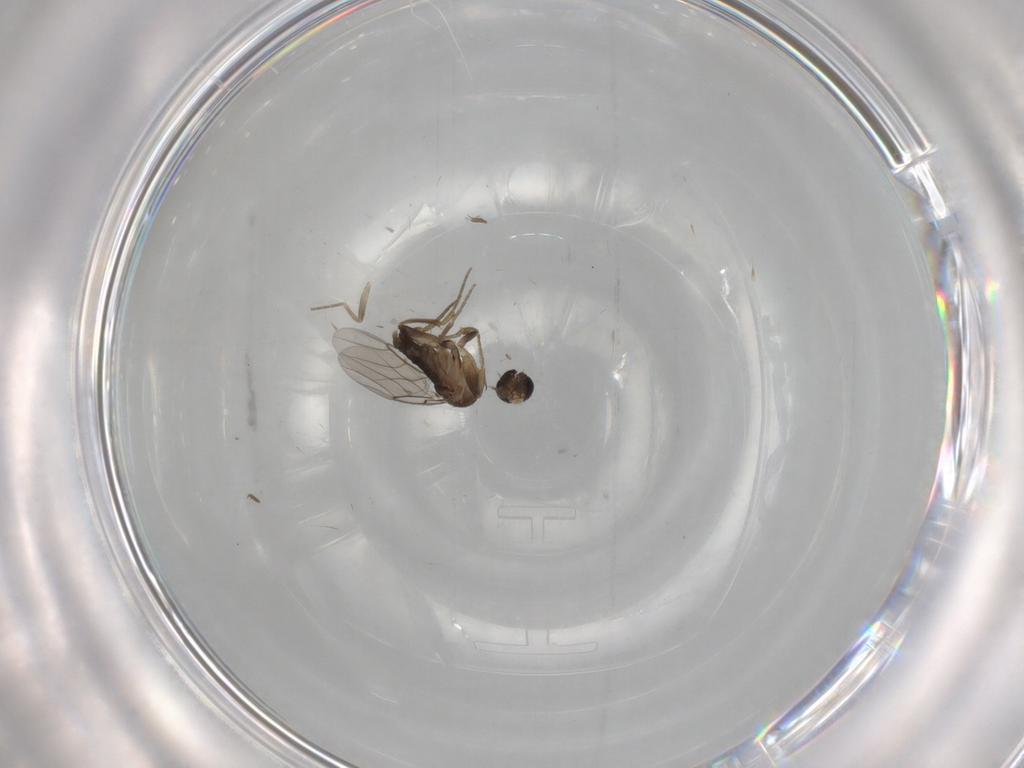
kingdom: Animalia
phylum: Arthropoda
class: Insecta
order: Diptera
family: Phoridae
